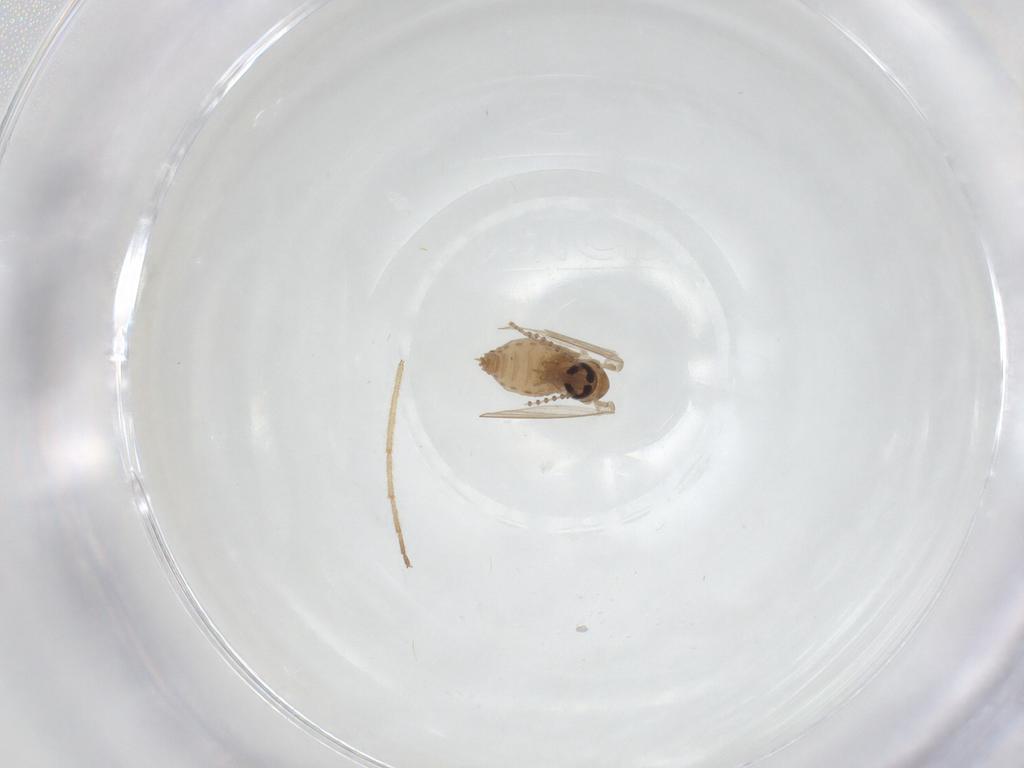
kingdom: Animalia
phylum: Arthropoda
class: Insecta
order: Diptera
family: Psychodidae
